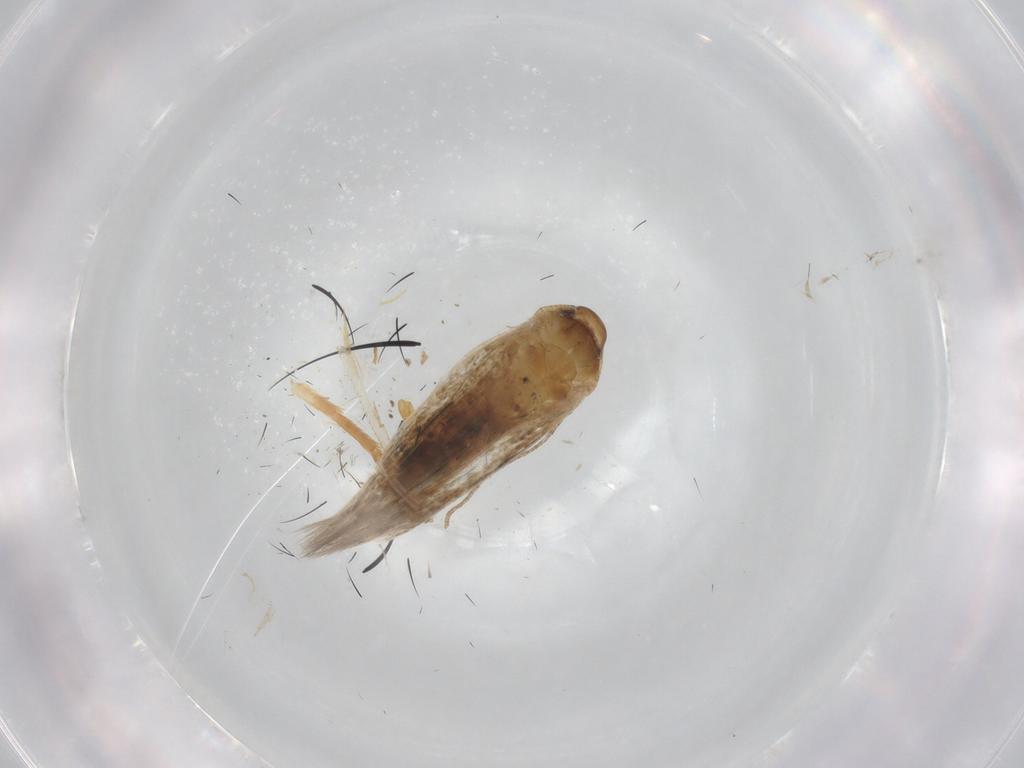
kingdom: Animalia
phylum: Arthropoda
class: Insecta
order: Lepidoptera
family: Cosmopterigidae
